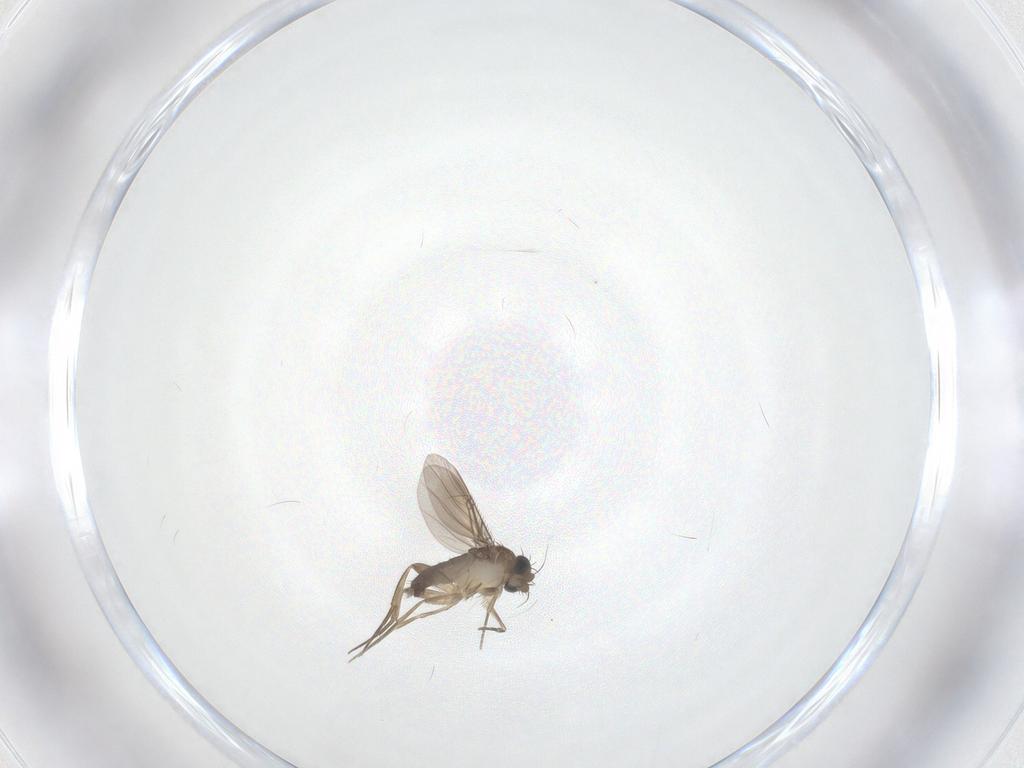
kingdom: Animalia
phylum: Arthropoda
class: Insecta
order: Diptera
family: Phoridae
